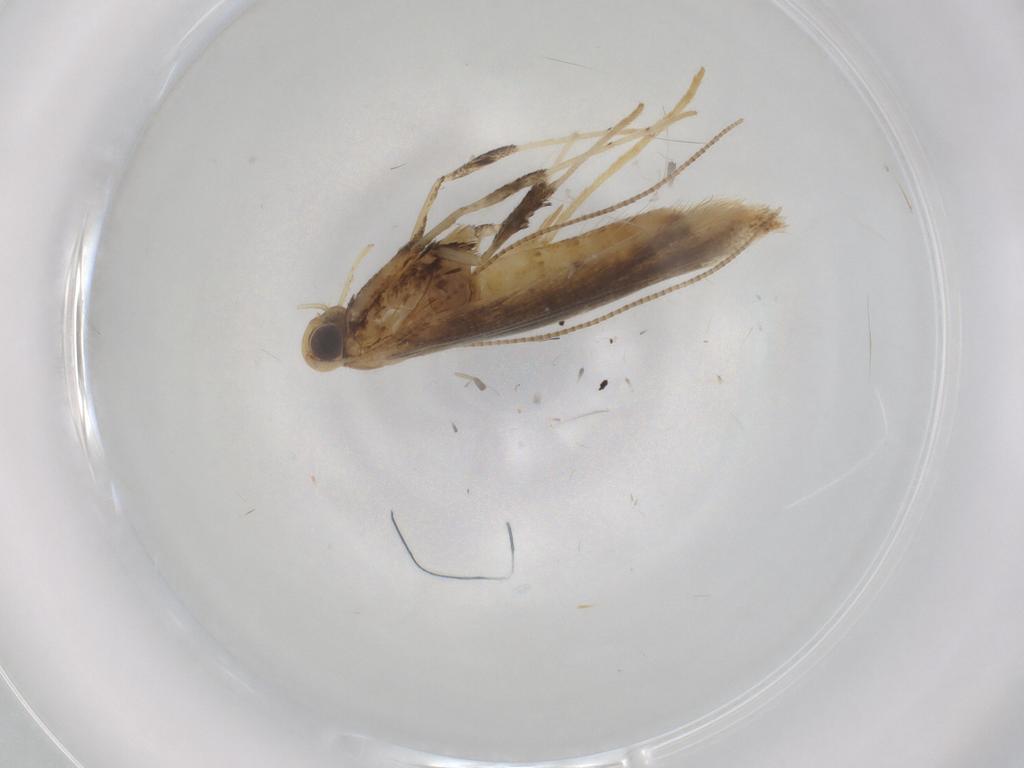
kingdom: Animalia
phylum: Arthropoda
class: Insecta
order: Lepidoptera
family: Gracillariidae
